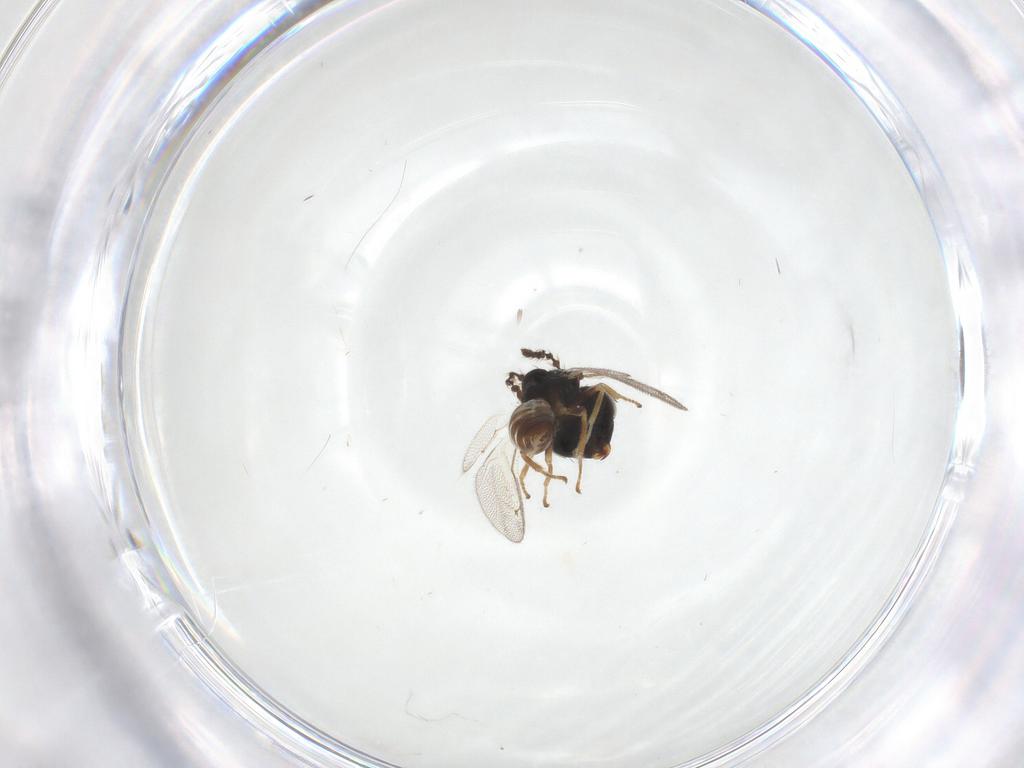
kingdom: Animalia
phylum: Arthropoda
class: Insecta
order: Hymenoptera
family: Pteromalidae
